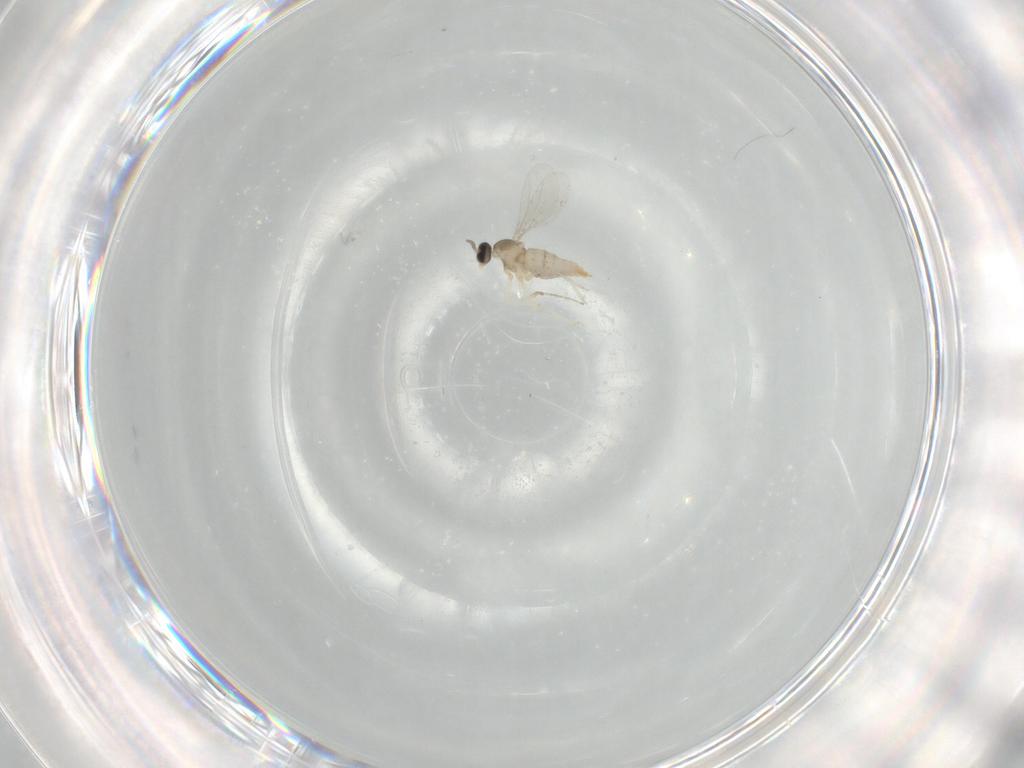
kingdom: Animalia
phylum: Arthropoda
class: Insecta
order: Diptera
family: Cecidomyiidae
